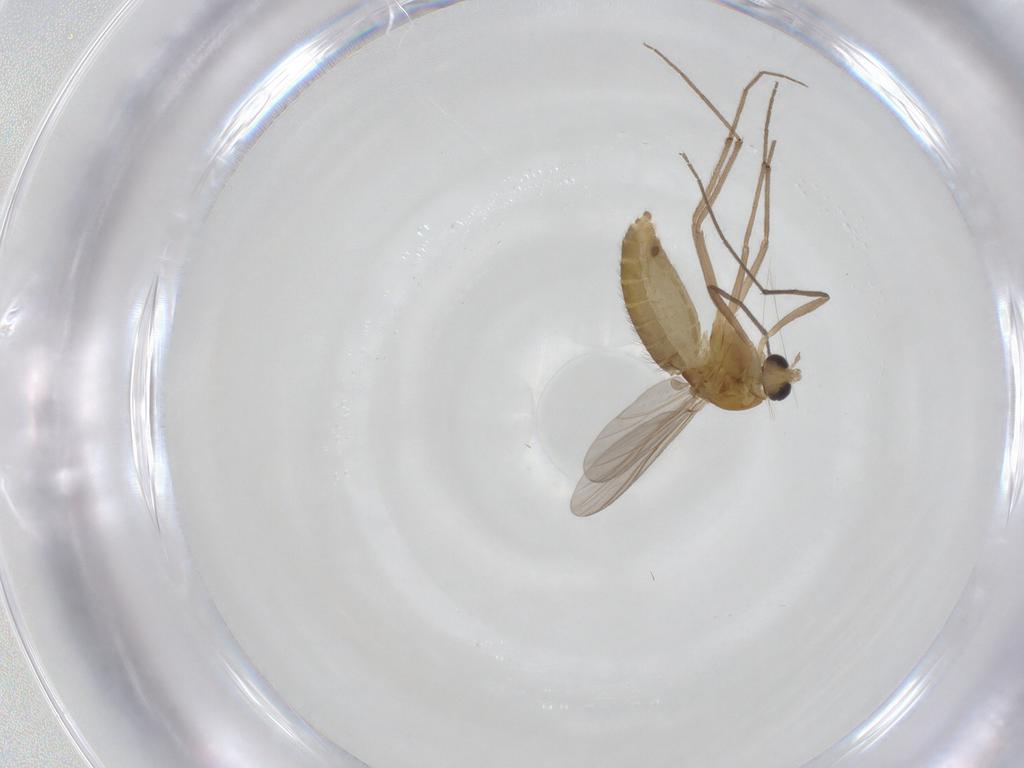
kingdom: Animalia
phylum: Arthropoda
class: Insecta
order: Diptera
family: Chironomidae
